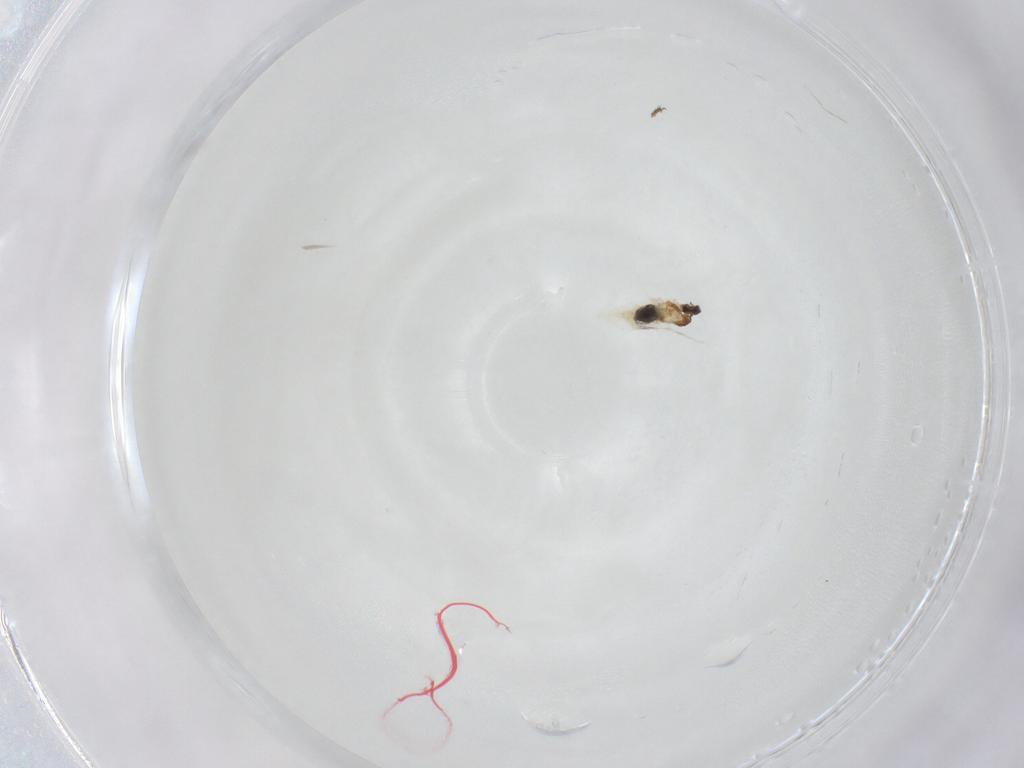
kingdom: Animalia
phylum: Arthropoda
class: Insecta
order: Diptera
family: Chloropidae
